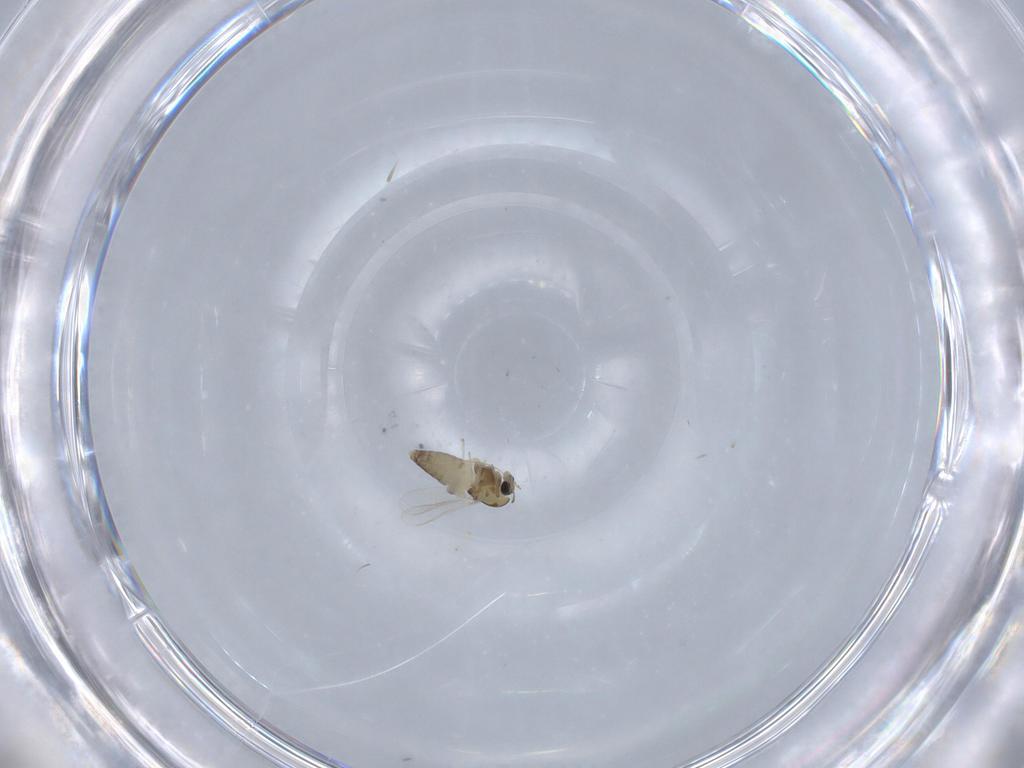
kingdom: Animalia
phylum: Arthropoda
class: Insecta
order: Diptera
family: Chironomidae
